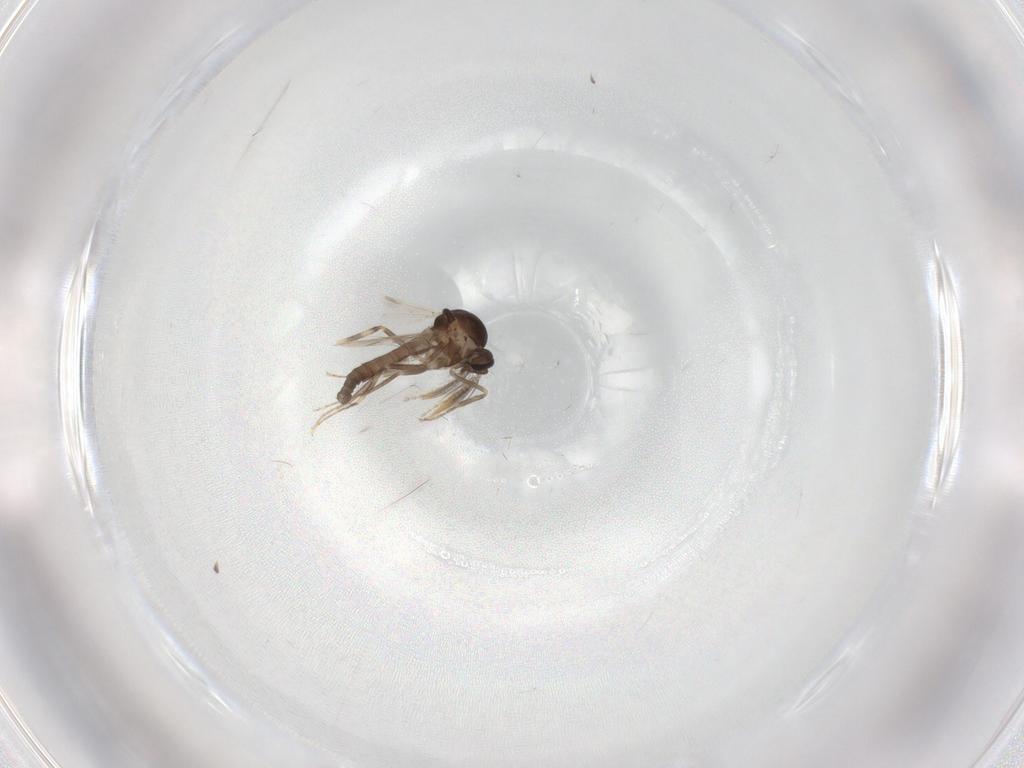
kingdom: Animalia
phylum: Arthropoda
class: Insecta
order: Diptera
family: Ceratopogonidae
